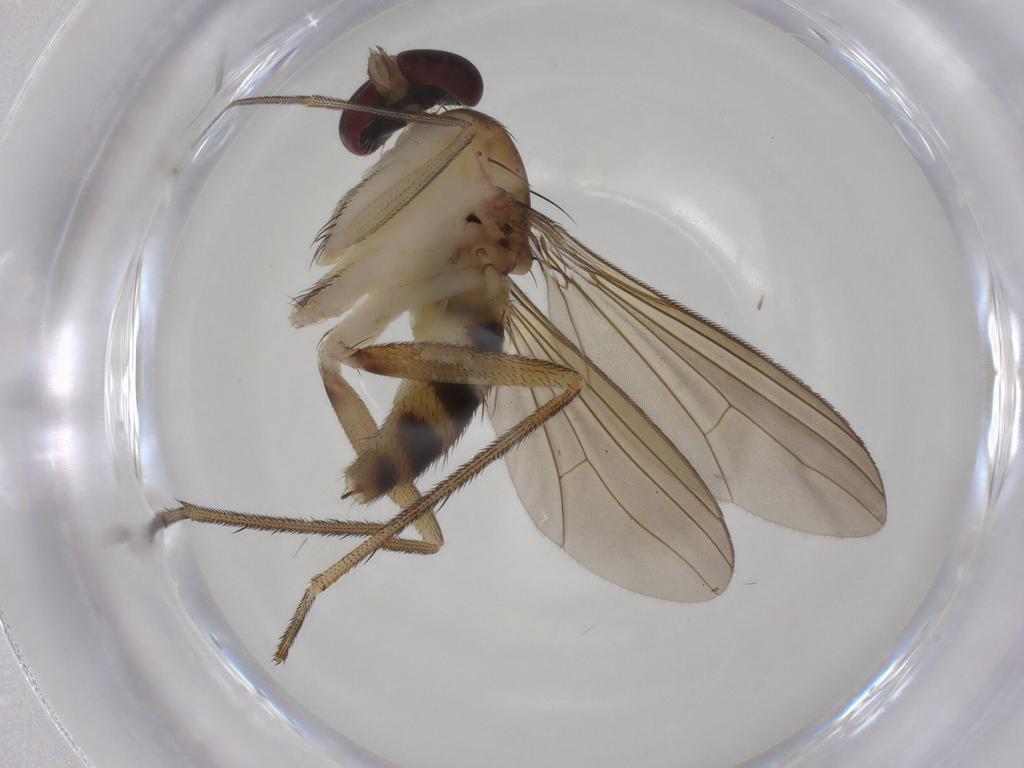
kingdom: Animalia
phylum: Arthropoda
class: Insecta
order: Diptera
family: Dolichopodidae
